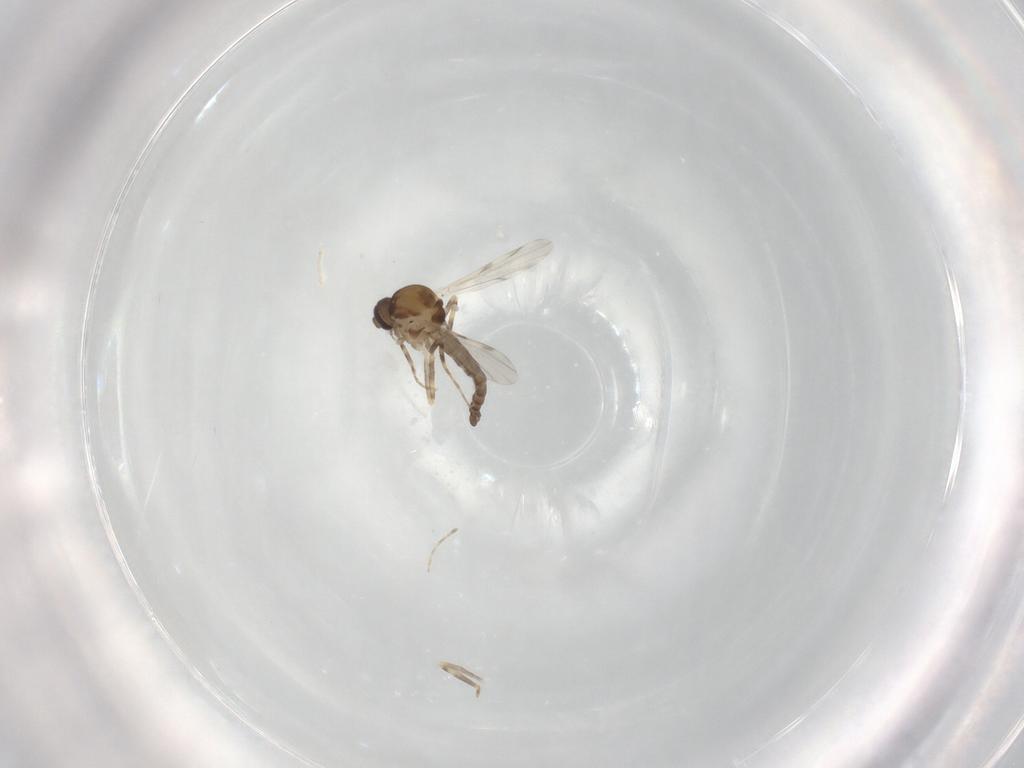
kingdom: Animalia
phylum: Arthropoda
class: Insecta
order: Diptera
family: Ceratopogonidae
